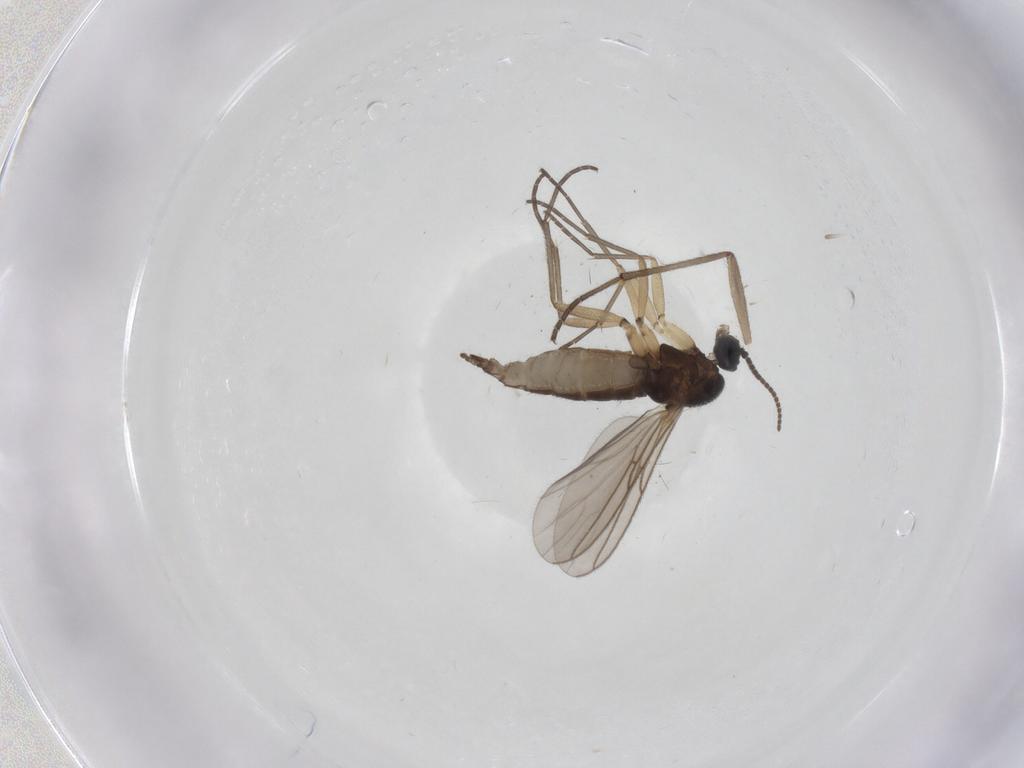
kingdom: Animalia
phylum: Arthropoda
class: Insecta
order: Diptera
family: Sciaridae
